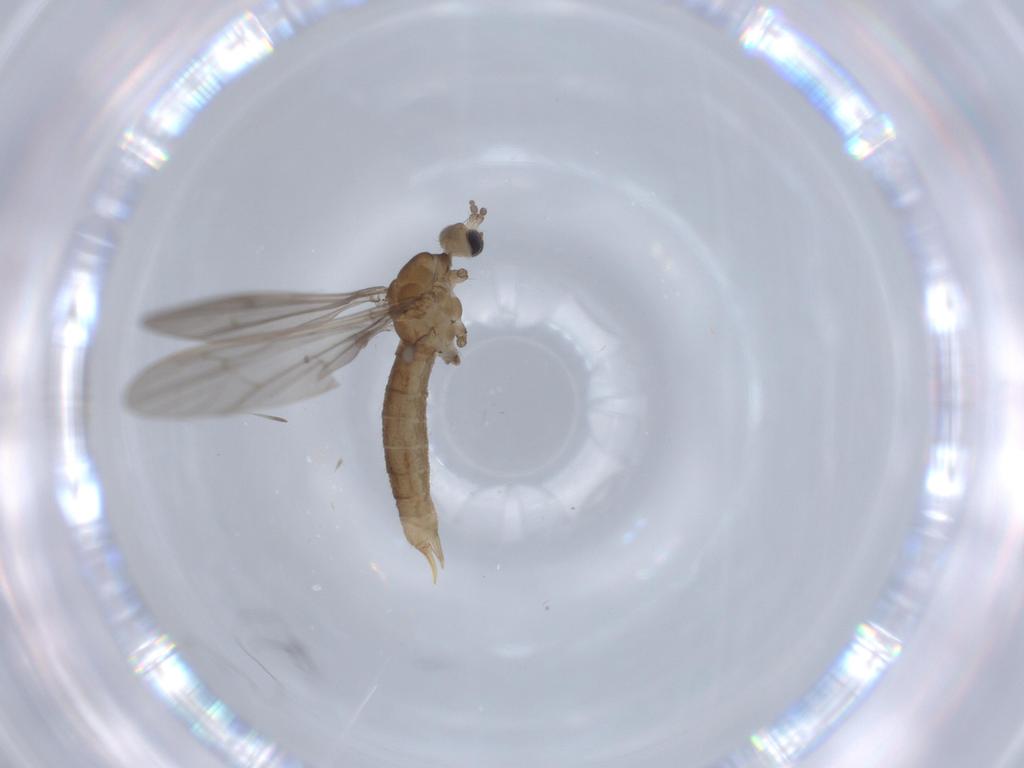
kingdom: Animalia
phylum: Arthropoda
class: Insecta
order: Diptera
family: Limoniidae
